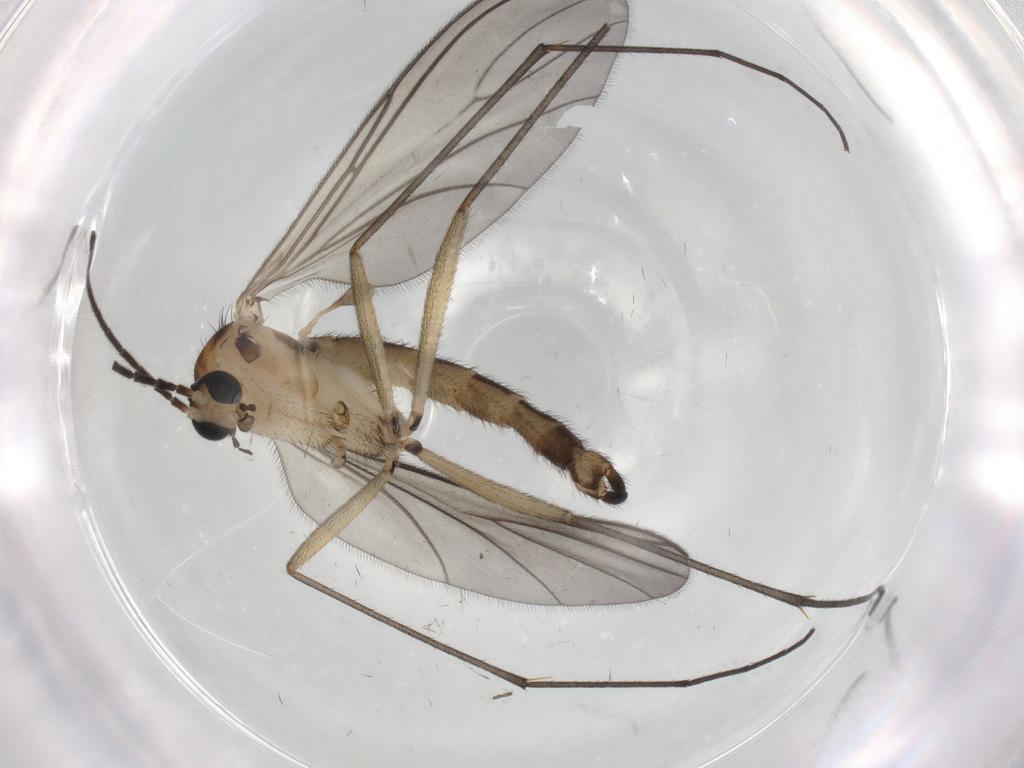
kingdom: Animalia
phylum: Arthropoda
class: Insecta
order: Diptera
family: Sciaridae
